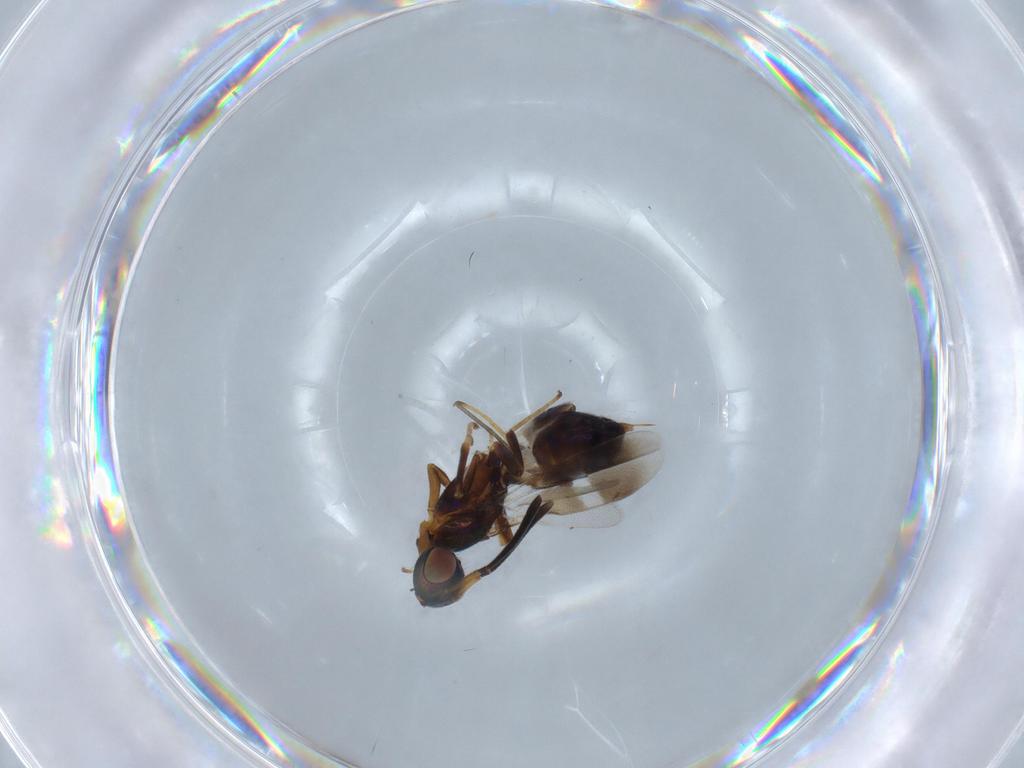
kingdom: Animalia
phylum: Arthropoda
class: Insecta
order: Hymenoptera
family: Eupelmidae
